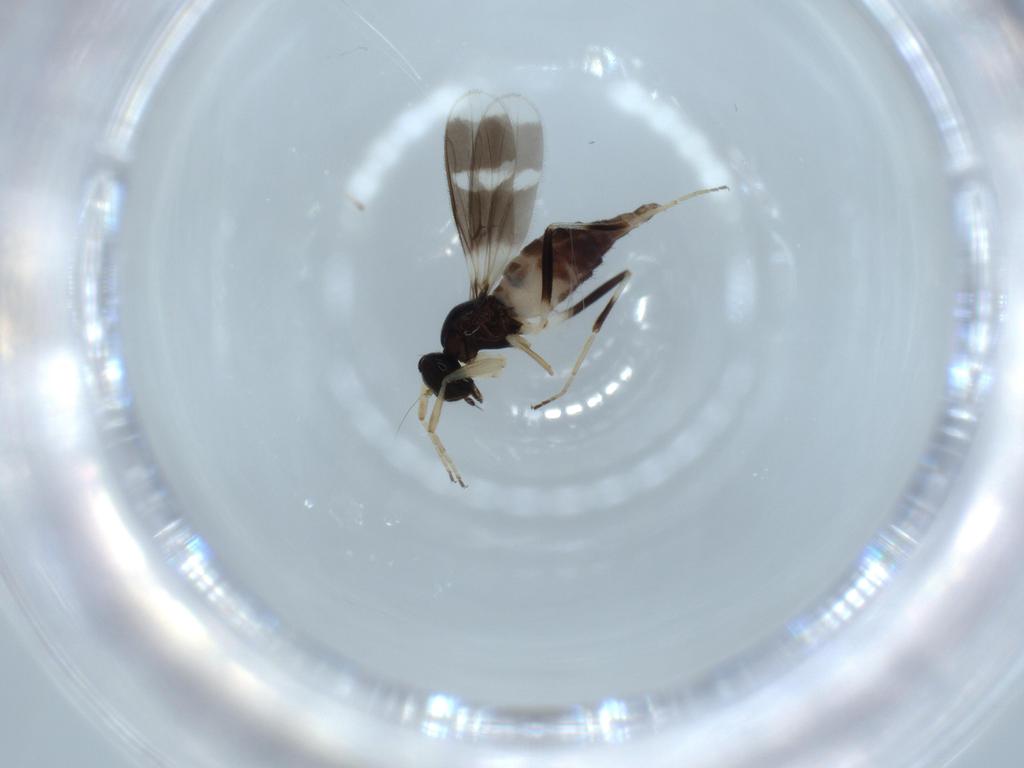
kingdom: Animalia
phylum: Arthropoda
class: Insecta
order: Diptera
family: Hybotidae
